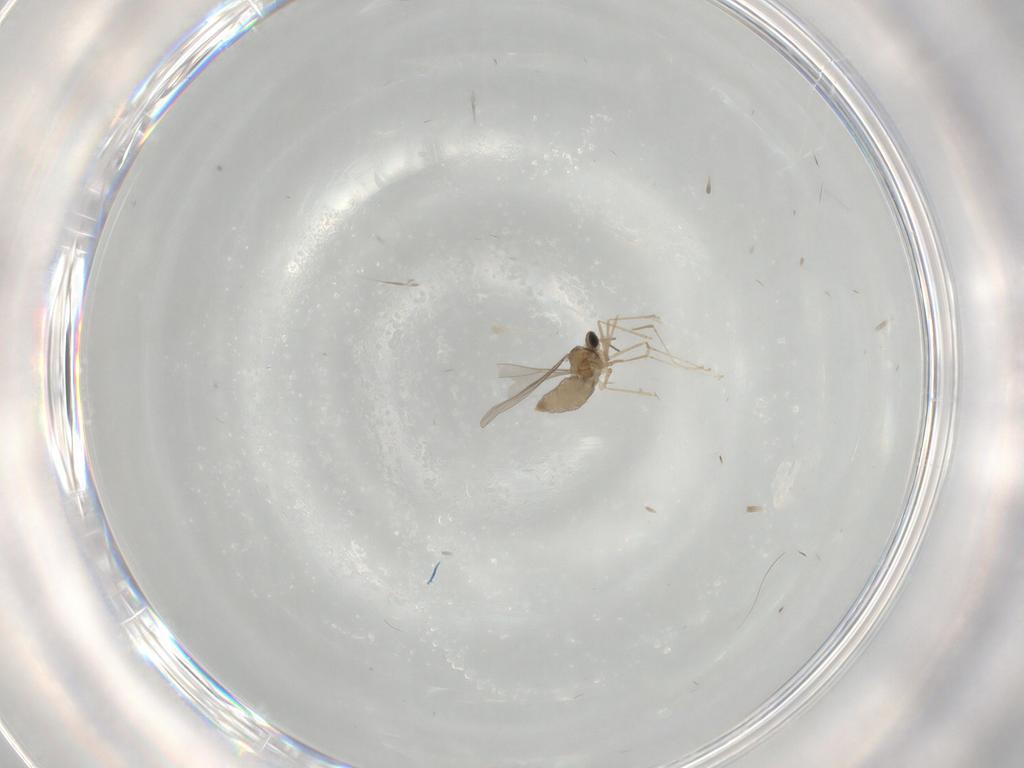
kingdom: Animalia
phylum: Arthropoda
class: Insecta
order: Diptera
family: Cecidomyiidae
